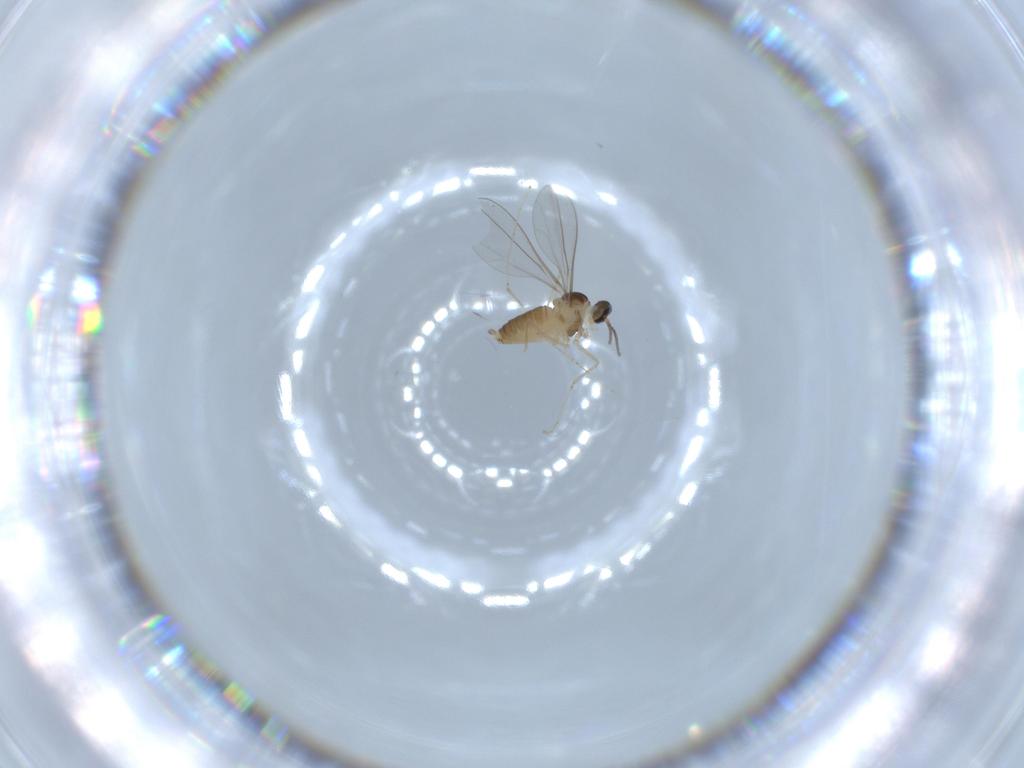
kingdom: Animalia
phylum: Arthropoda
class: Insecta
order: Diptera
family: Cecidomyiidae
